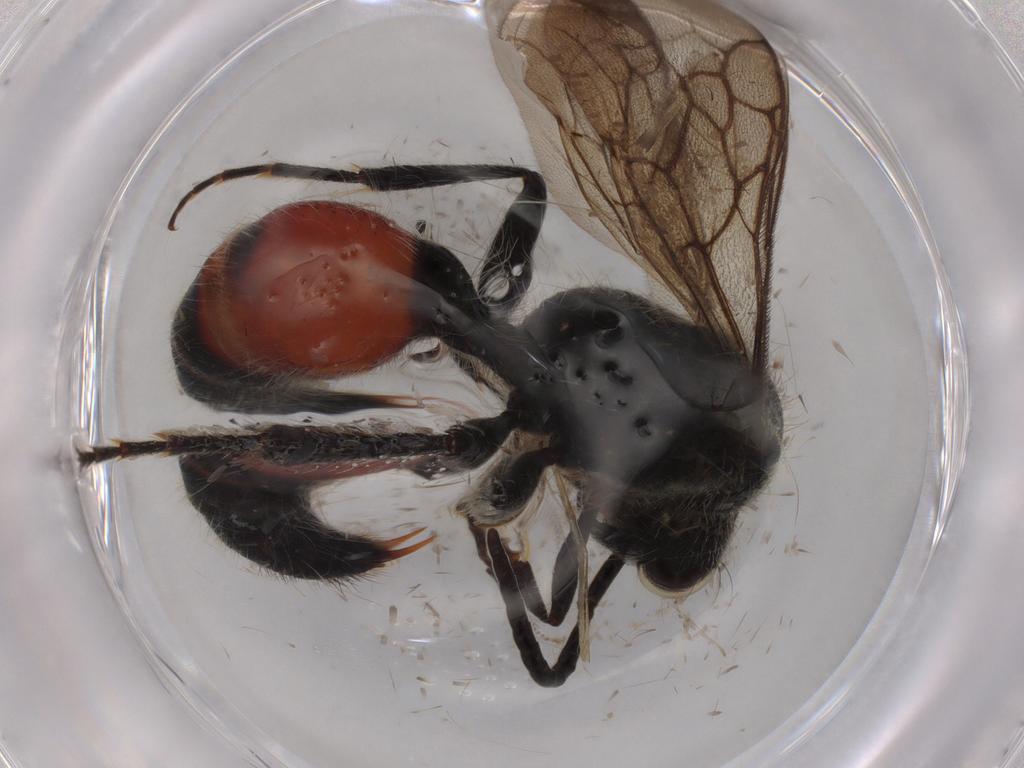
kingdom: Animalia
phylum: Arthropoda
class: Insecta
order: Hymenoptera
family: Scelionidae
